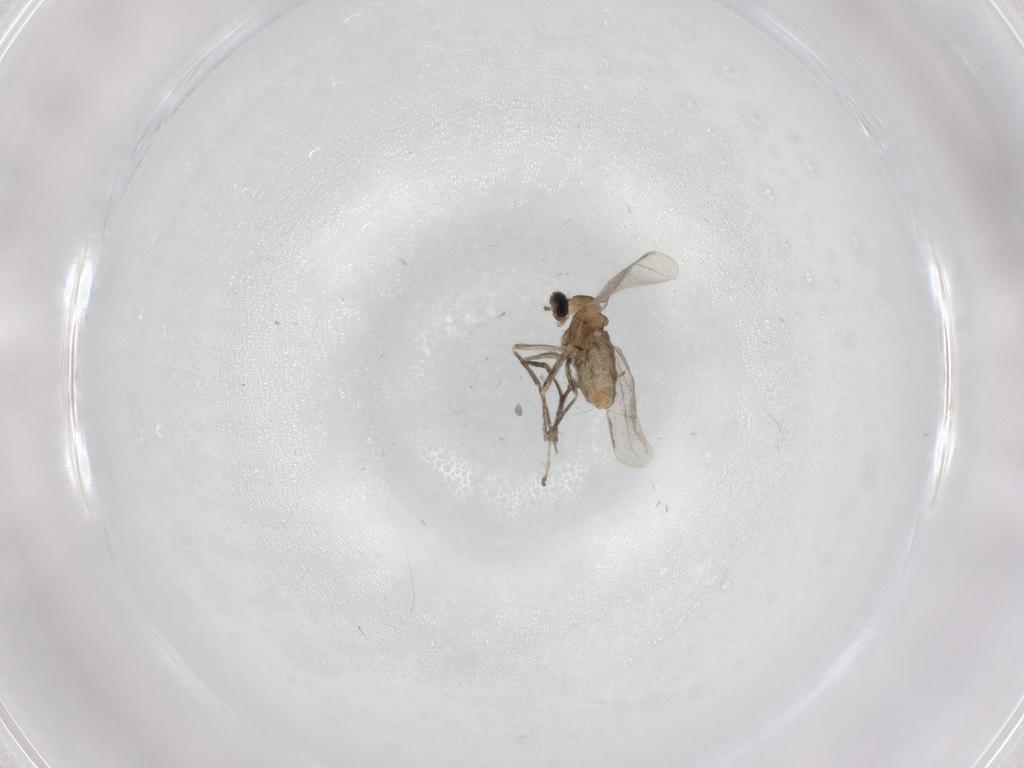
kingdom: Animalia
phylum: Arthropoda
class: Insecta
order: Diptera
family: Cecidomyiidae
